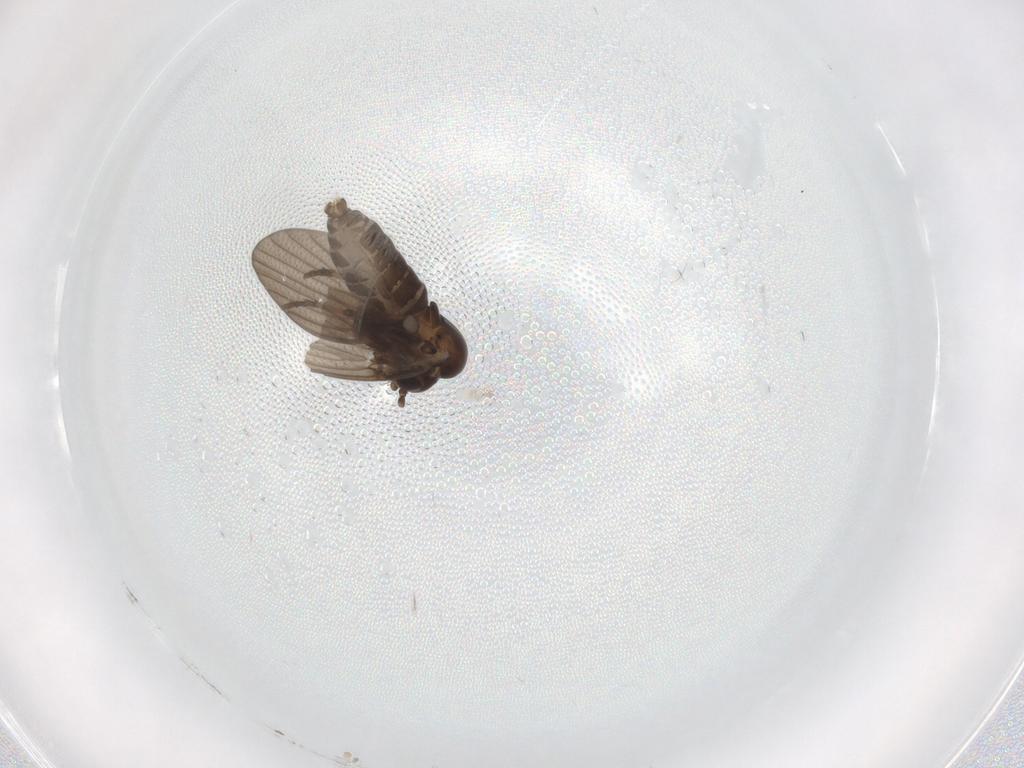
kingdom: Animalia
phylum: Arthropoda
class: Insecta
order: Diptera
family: Psychodidae
